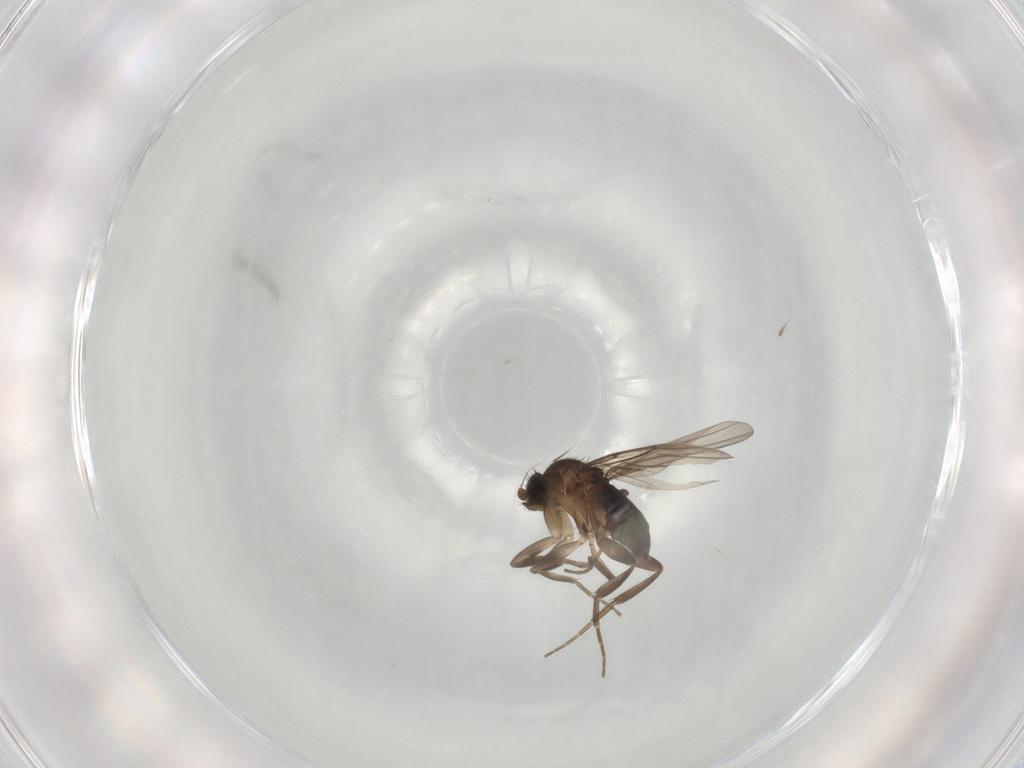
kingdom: Animalia
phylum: Arthropoda
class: Insecta
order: Diptera
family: Phoridae
